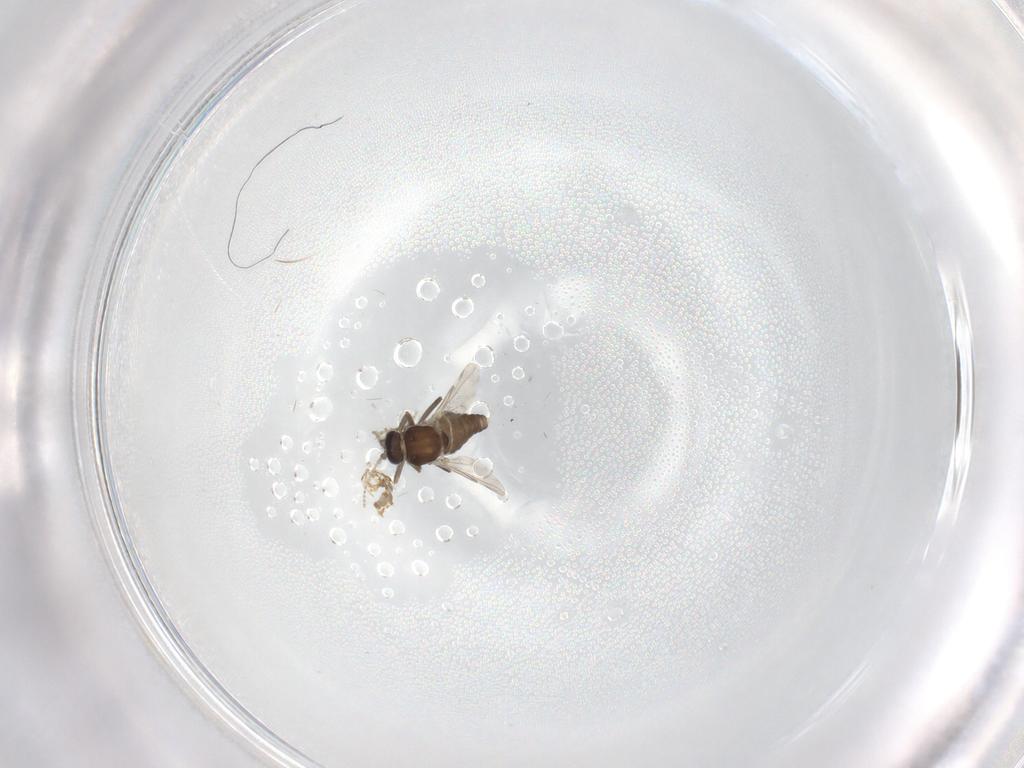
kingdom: Animalia
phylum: Arthropoda
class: Insecta
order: Diptera
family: Ceratopogonidae
